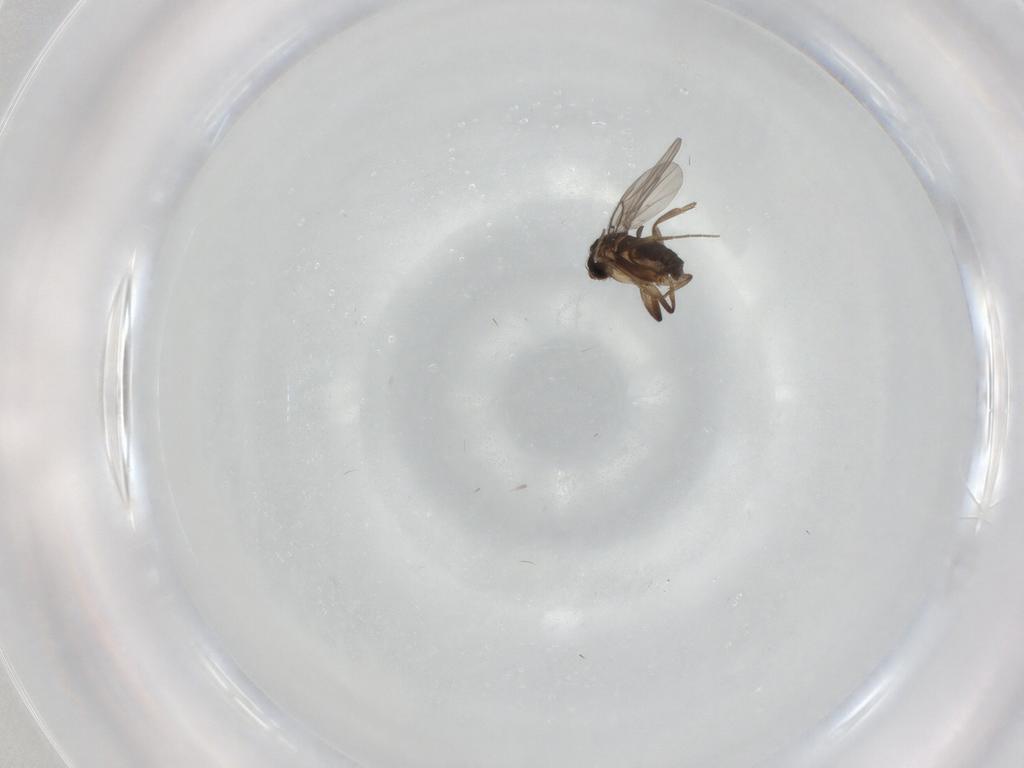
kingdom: Animalia
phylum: Arthropoda
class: Insecta
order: Diptera
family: Phoridae
